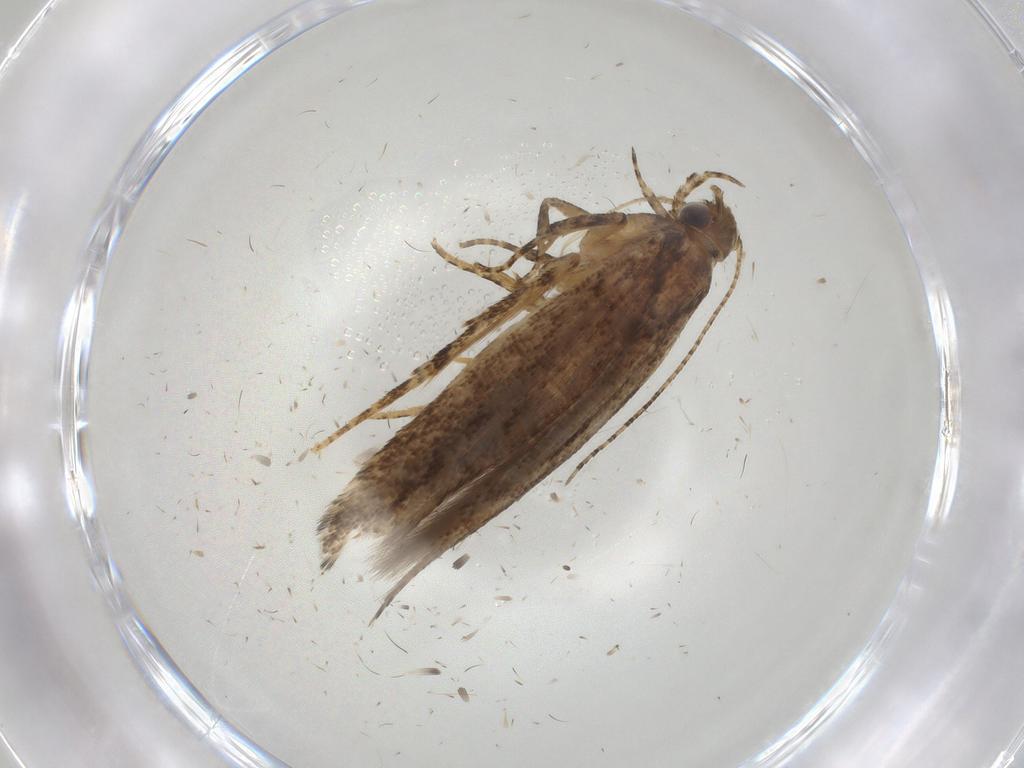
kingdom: Animalia
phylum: Arthropoda
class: Insecta
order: Lepidoptera
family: Gelechiidae
